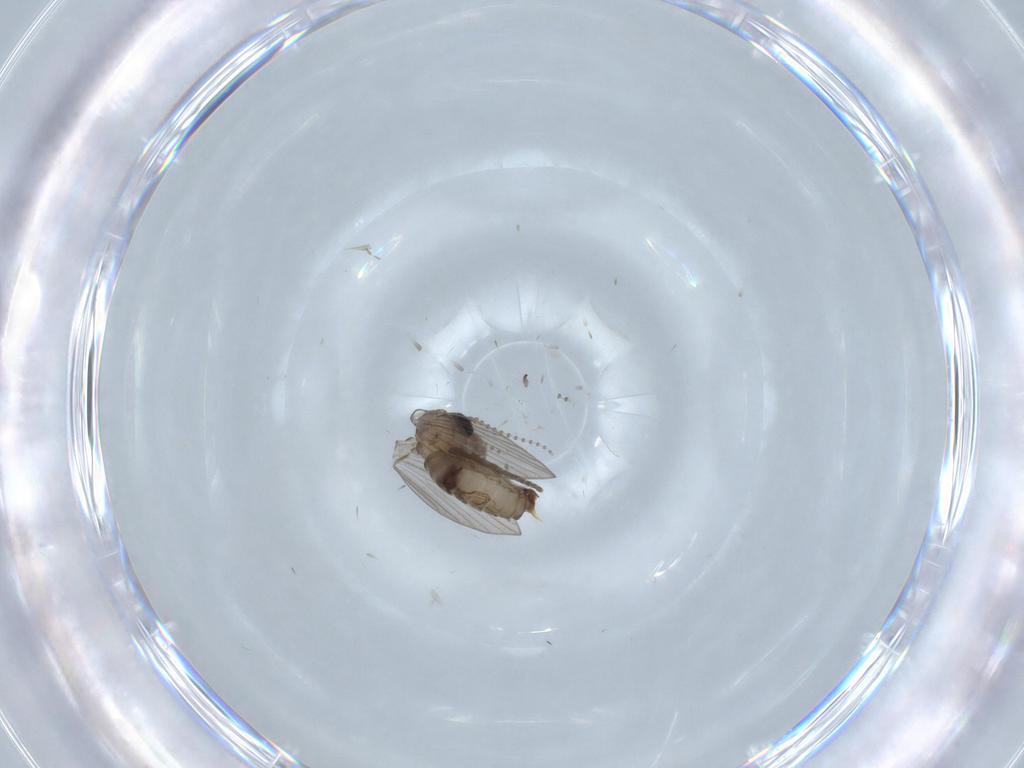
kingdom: Animalia
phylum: Arthropoda
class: Insecta
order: Diptera
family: Psychodidae
